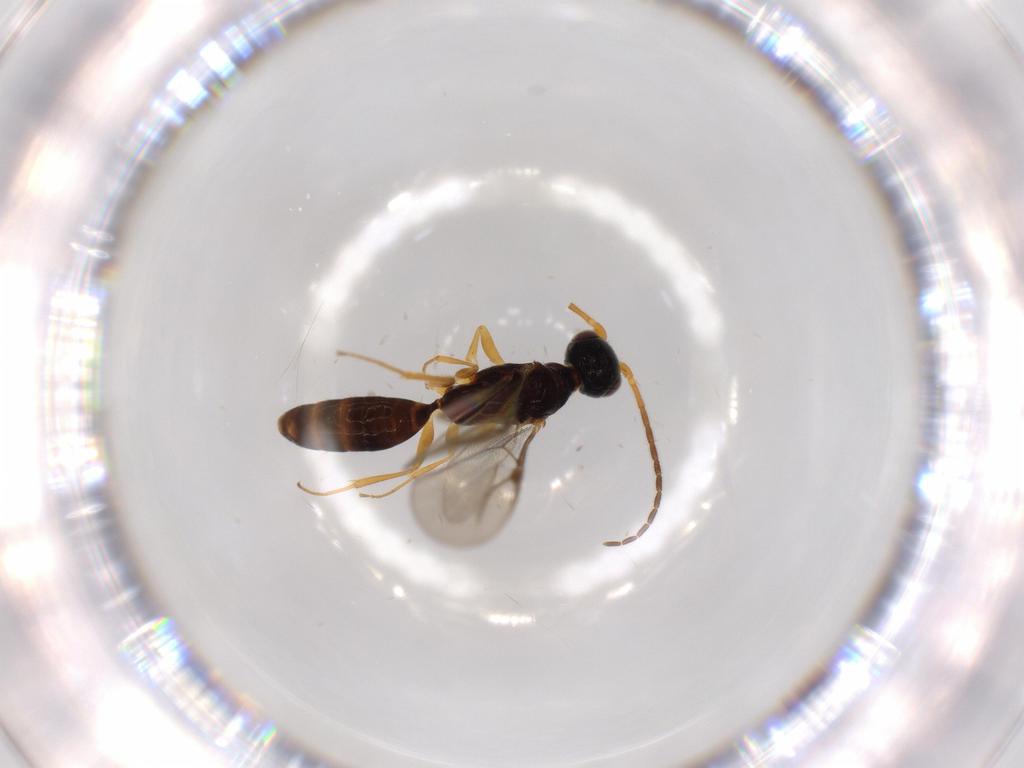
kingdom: Animalia
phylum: Arthropoda
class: Insecta
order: Hymenoptera
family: Bethylidae
